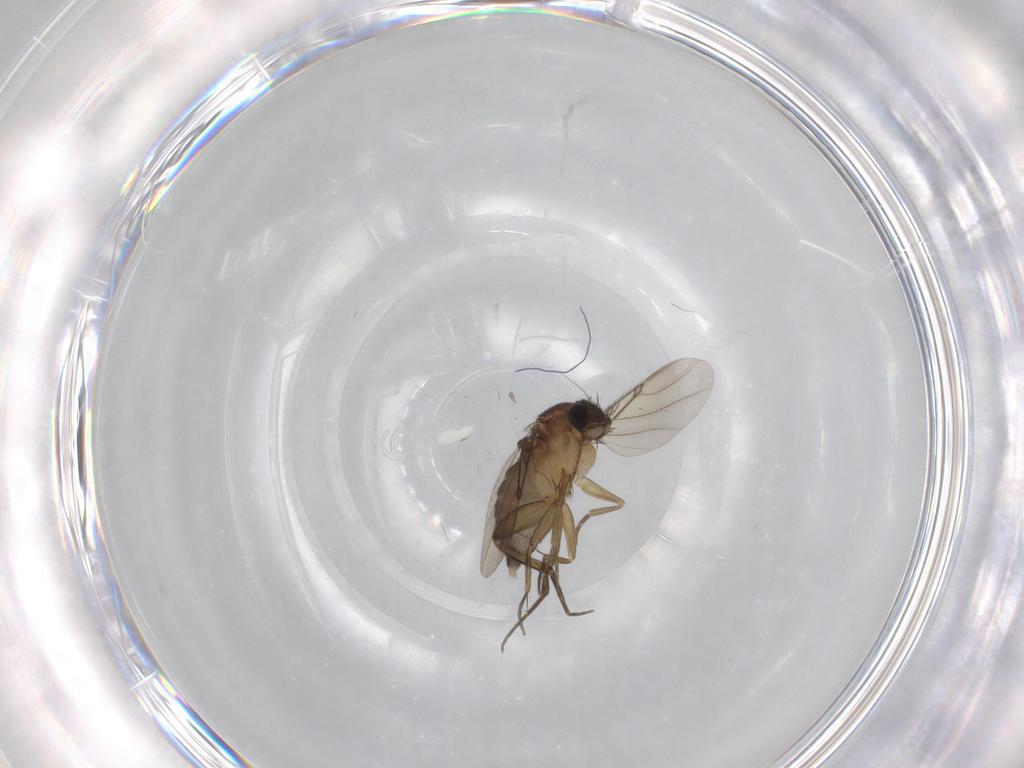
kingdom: Animalia
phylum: Arthropoda
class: Insecta
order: Diptera
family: Phoridae
